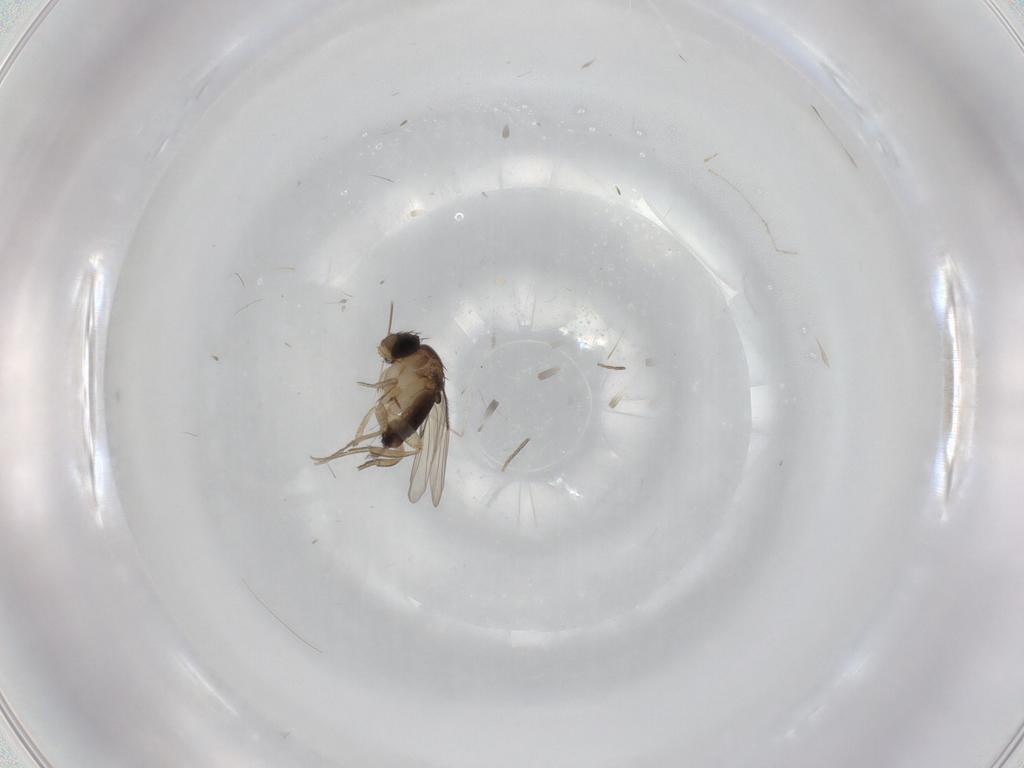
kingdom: Animalia
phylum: Arthropoda
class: Insecta
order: Diptera
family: Cecidomyiidae
